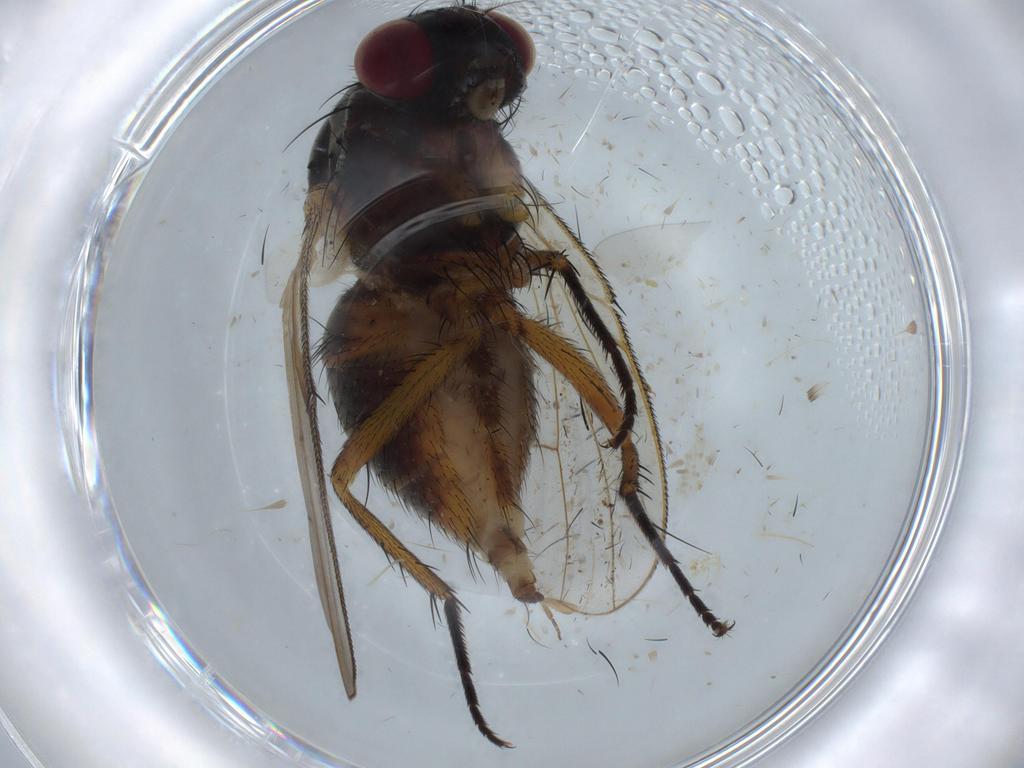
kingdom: Animalia
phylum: Arthropoda
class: Insecta
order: Diptera
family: Muscidae
